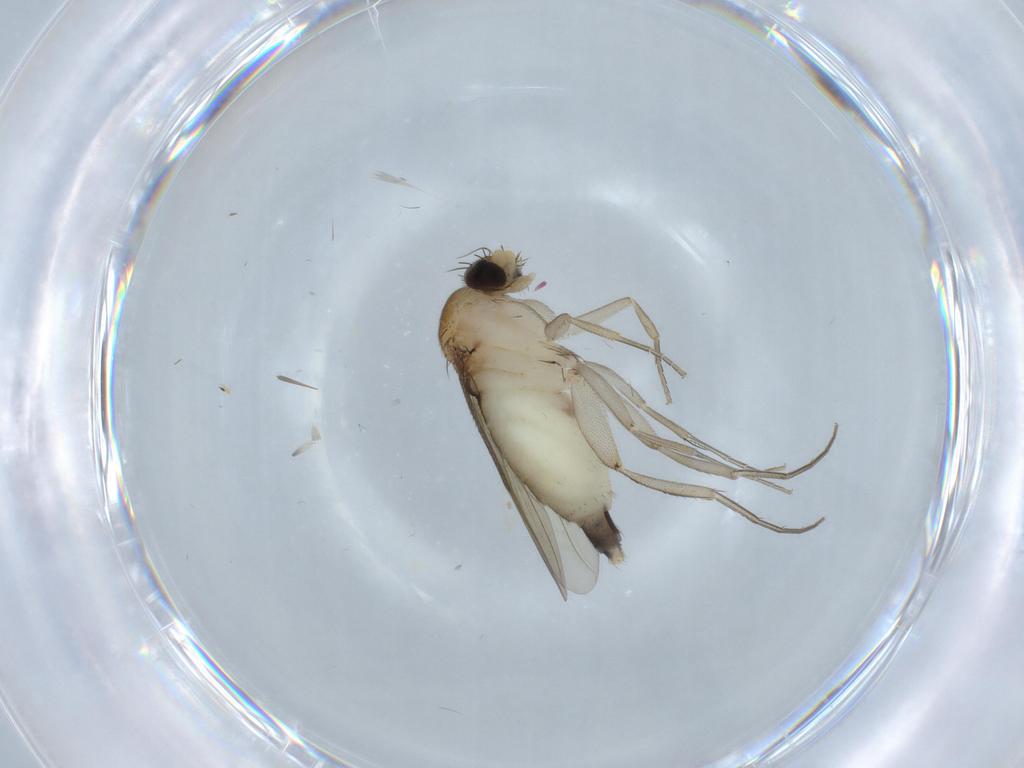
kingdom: Animalia
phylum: Arthropoda
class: Insecta
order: Diptera
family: Phoridae
